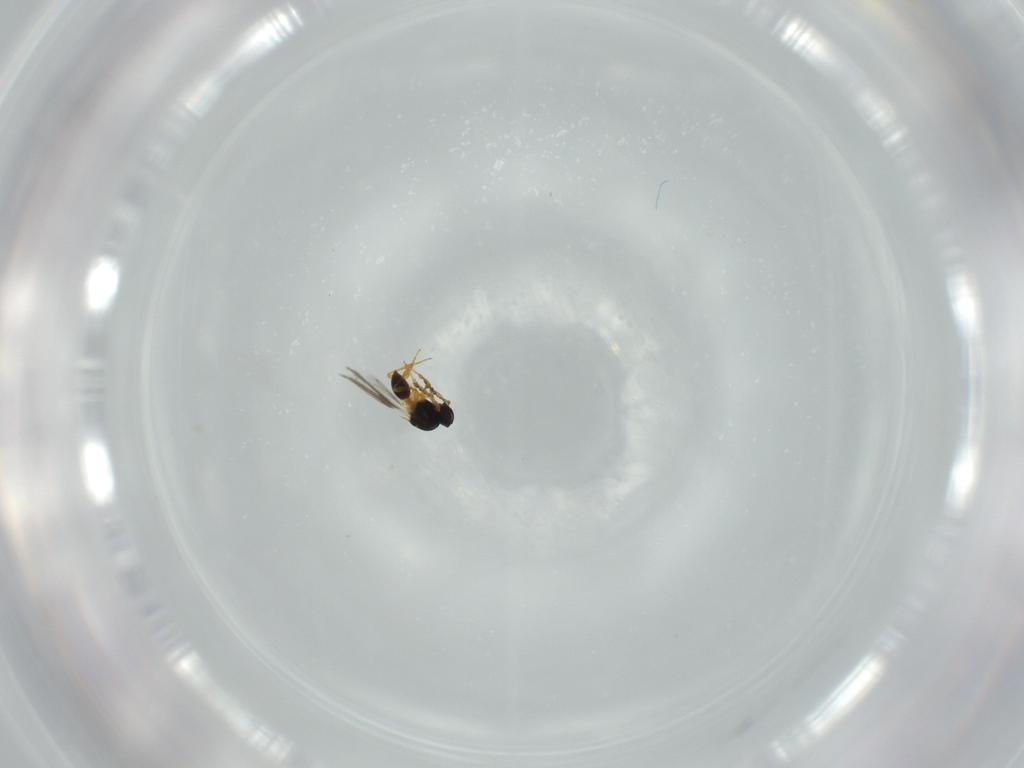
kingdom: Animalia
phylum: Arthropoda
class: Insecta
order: Hymenoptera
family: Platygastridae
